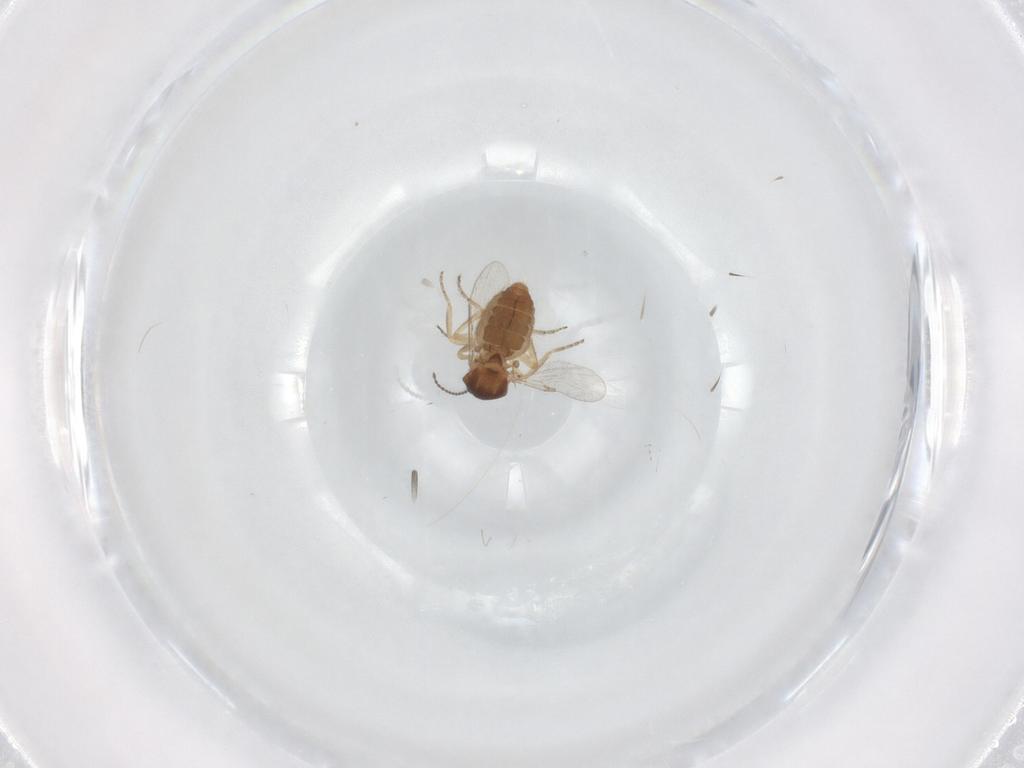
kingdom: Animalia
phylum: Arthropoda
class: Insecta
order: Diptera
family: Ceratopogonidae
